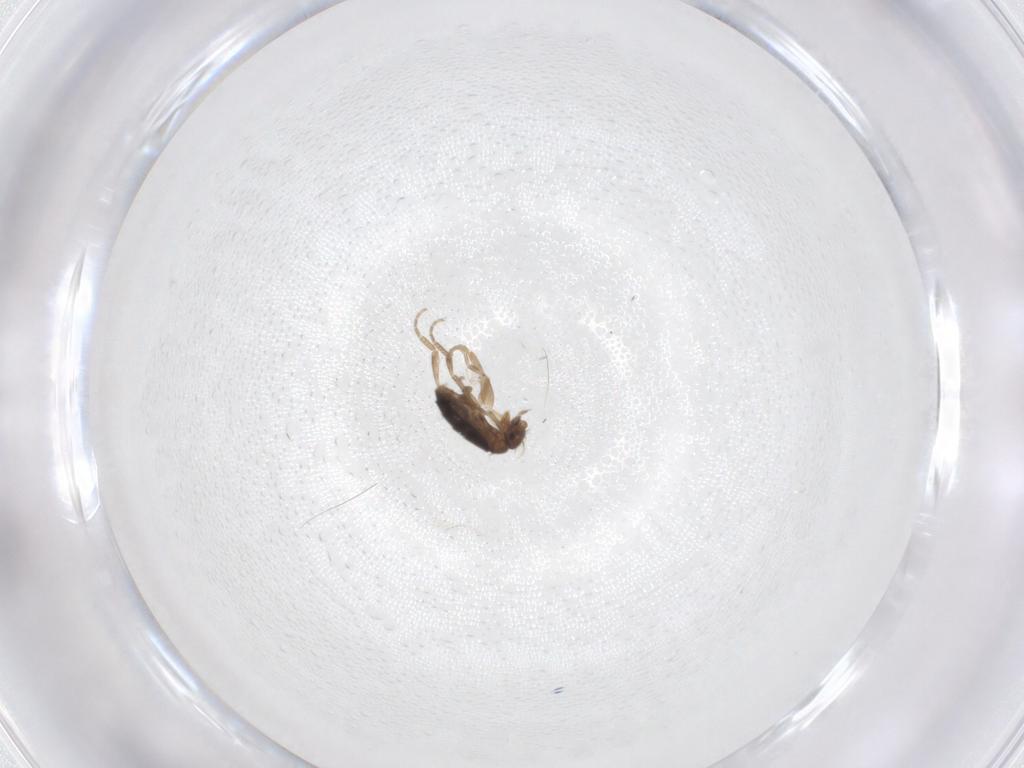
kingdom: Animalia
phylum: Arthropoda
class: Insecta
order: Diptera
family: Phoridae
